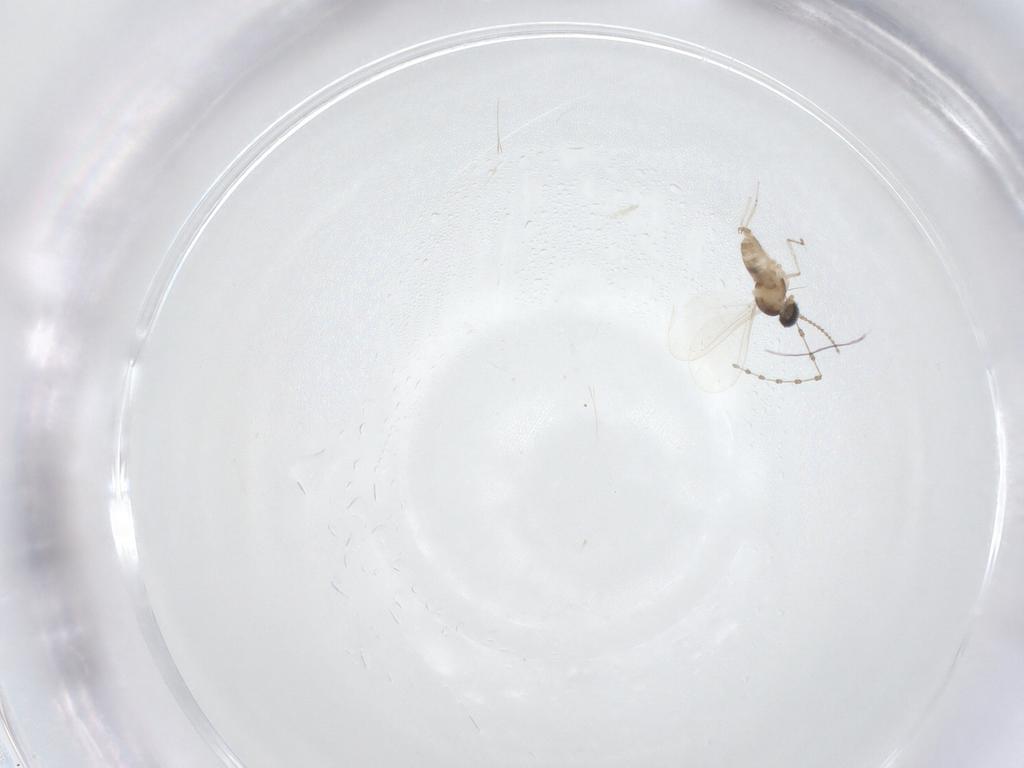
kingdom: Animalia
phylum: Arthropoda
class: Insecta
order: Diptera
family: Cecidomyiidae
